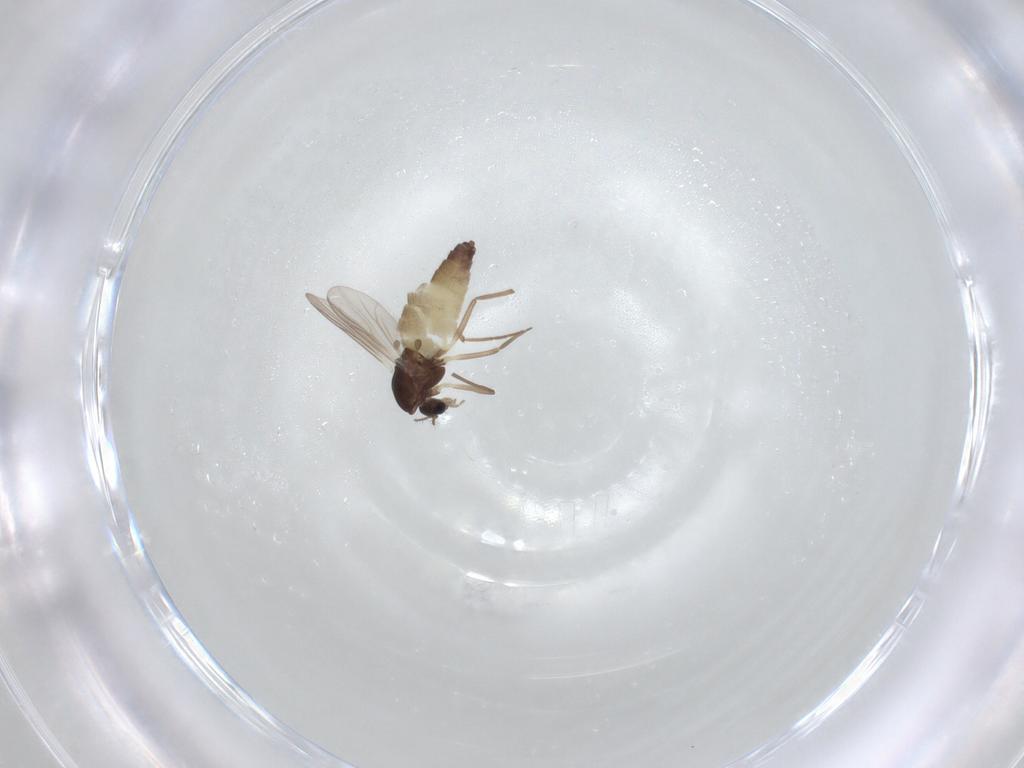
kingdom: Animalia
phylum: Arthropoda
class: Insecta
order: Diptera
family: Chironomidae
